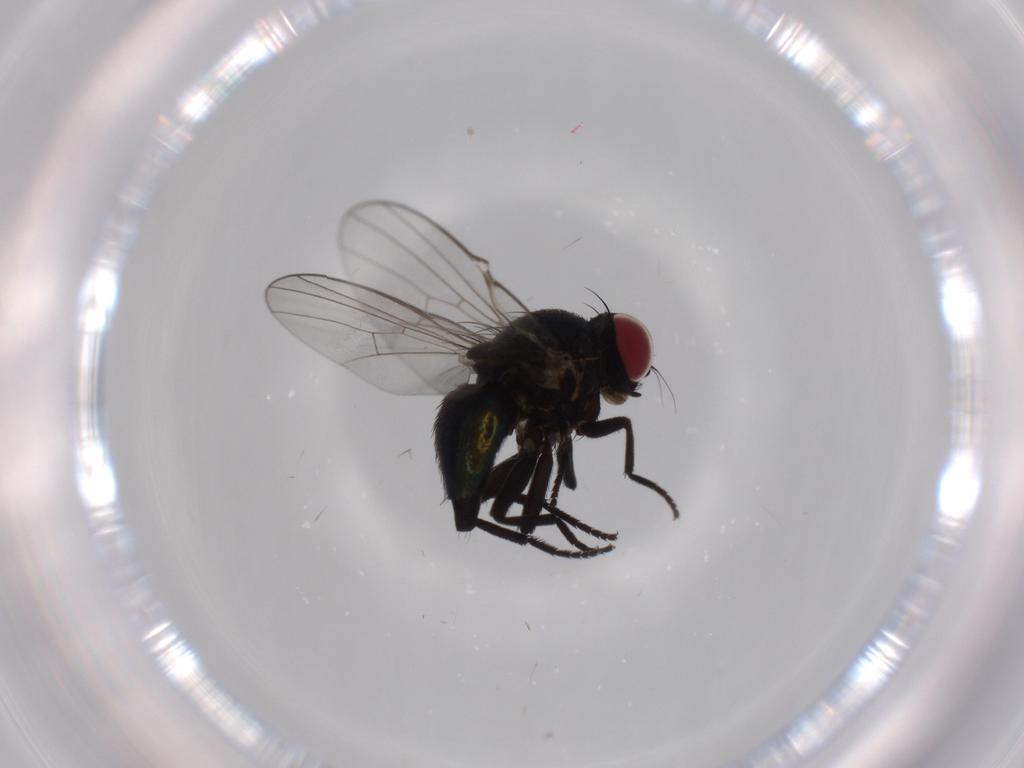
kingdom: Animalia
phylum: Arthropoda
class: Insecta
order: Diptera
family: Agromyzidae
